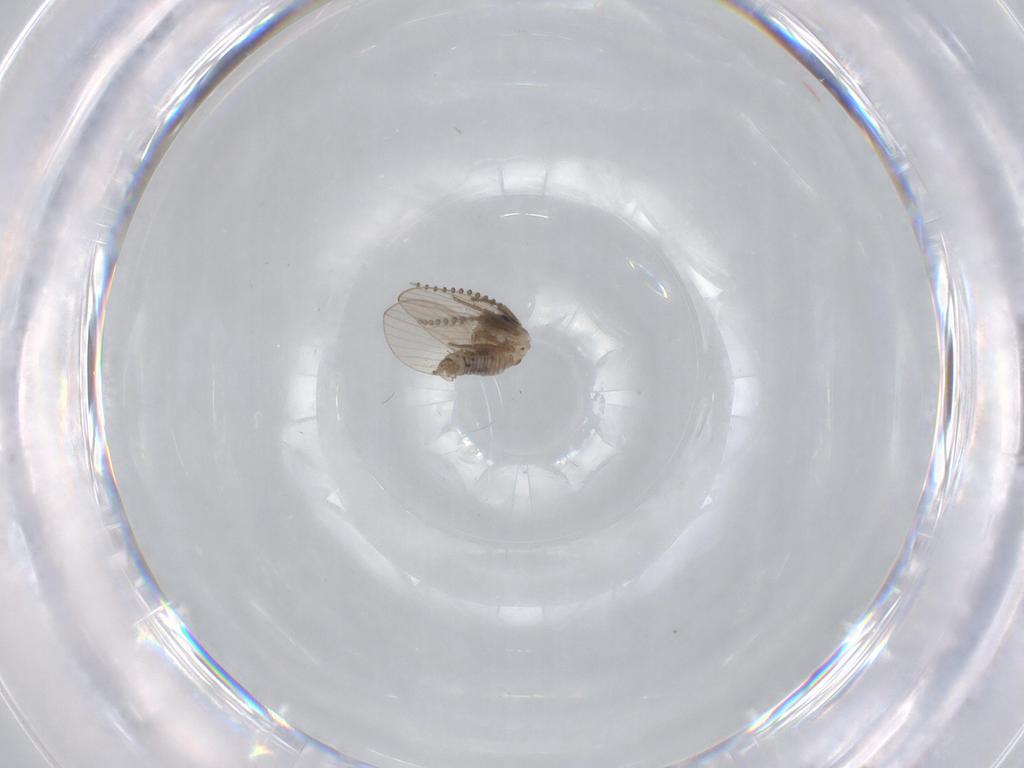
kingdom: Animalia
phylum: Arthropoda
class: Insecta
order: Diptera
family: Psychodidae
